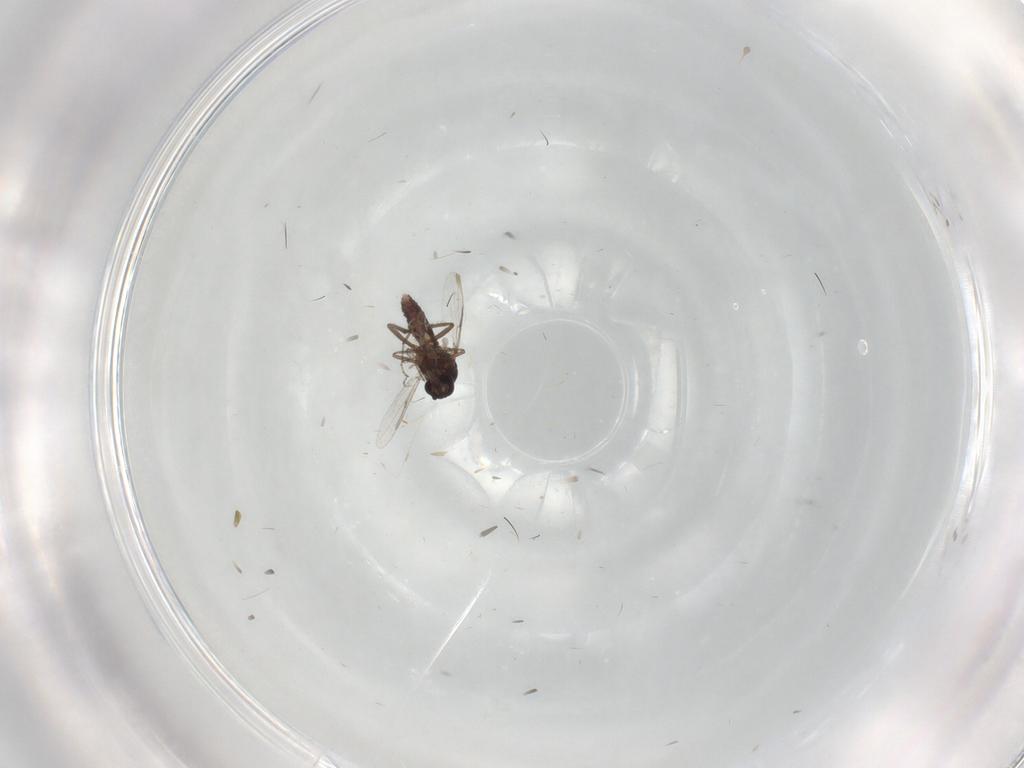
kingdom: Animalia
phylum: Arthropoda
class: Insecta
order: Diptera
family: Ceratopogonidae
